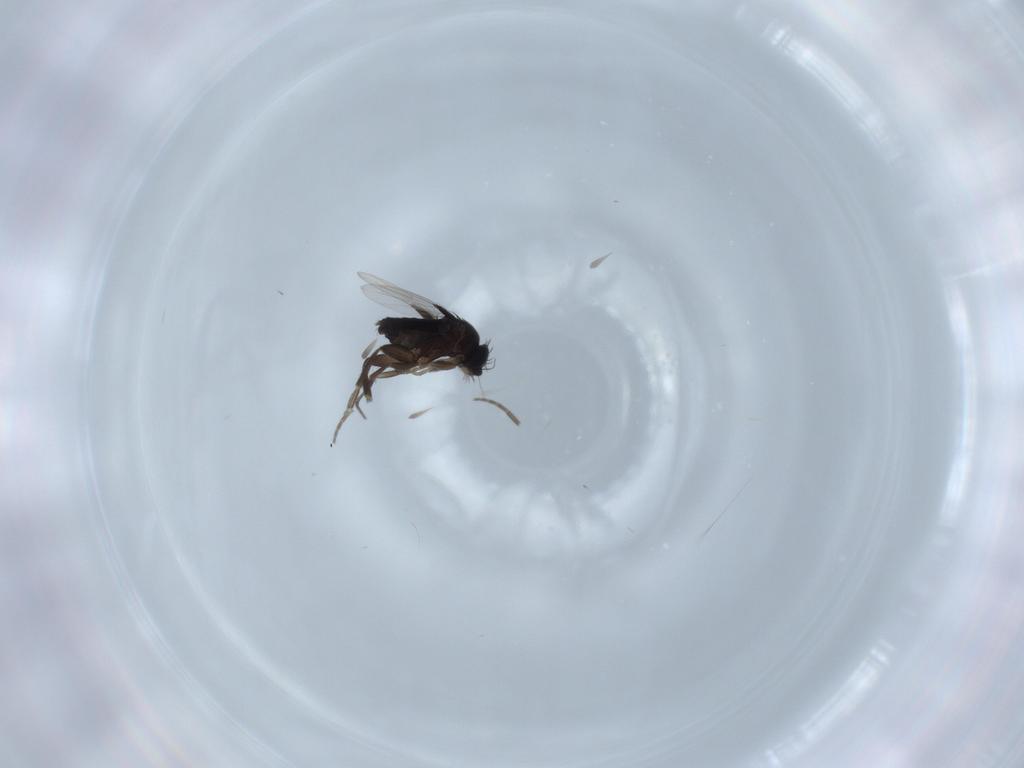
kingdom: Animalia
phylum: Arthropoda
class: Insecta
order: Diptera
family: Phoridae
